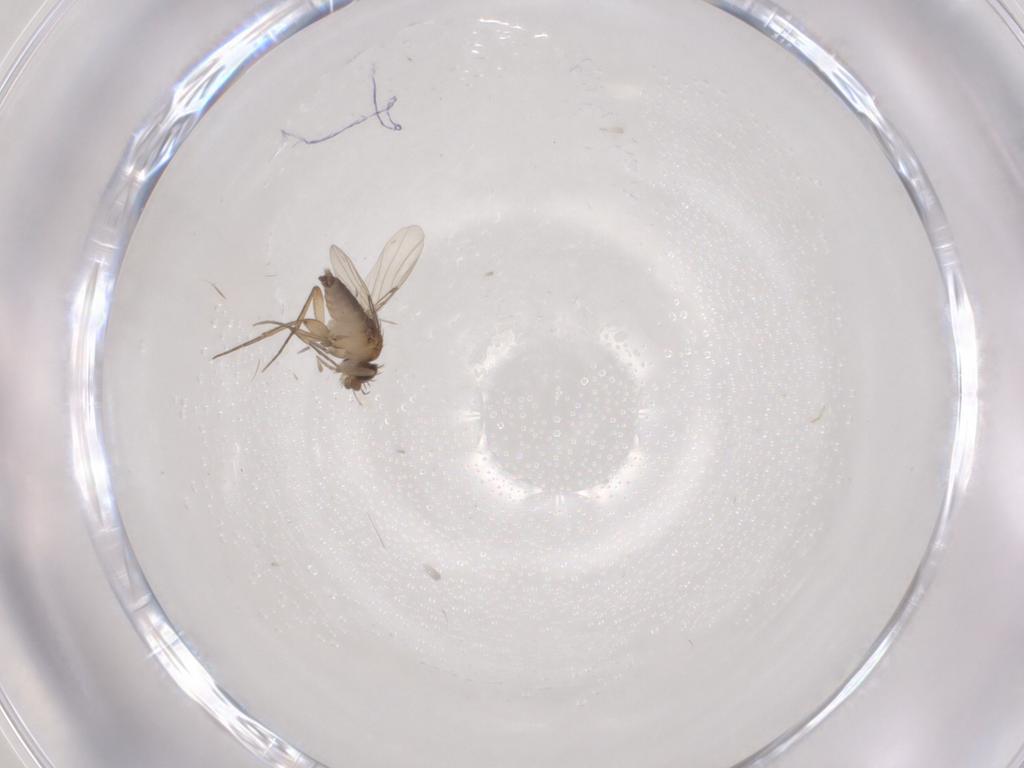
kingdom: Animalia
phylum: Arthropoda
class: Insecta
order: Diptera
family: Phoridae
